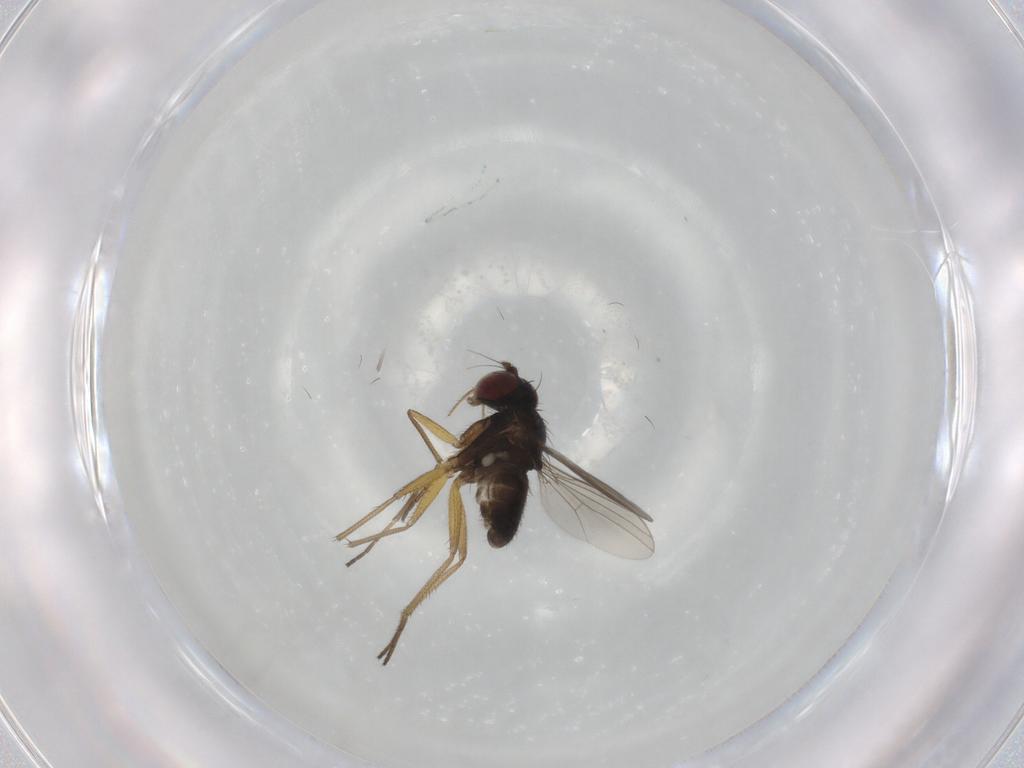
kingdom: Animalia
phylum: Arthropoda
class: Insecta
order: Diptera
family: Dolichopodidae
